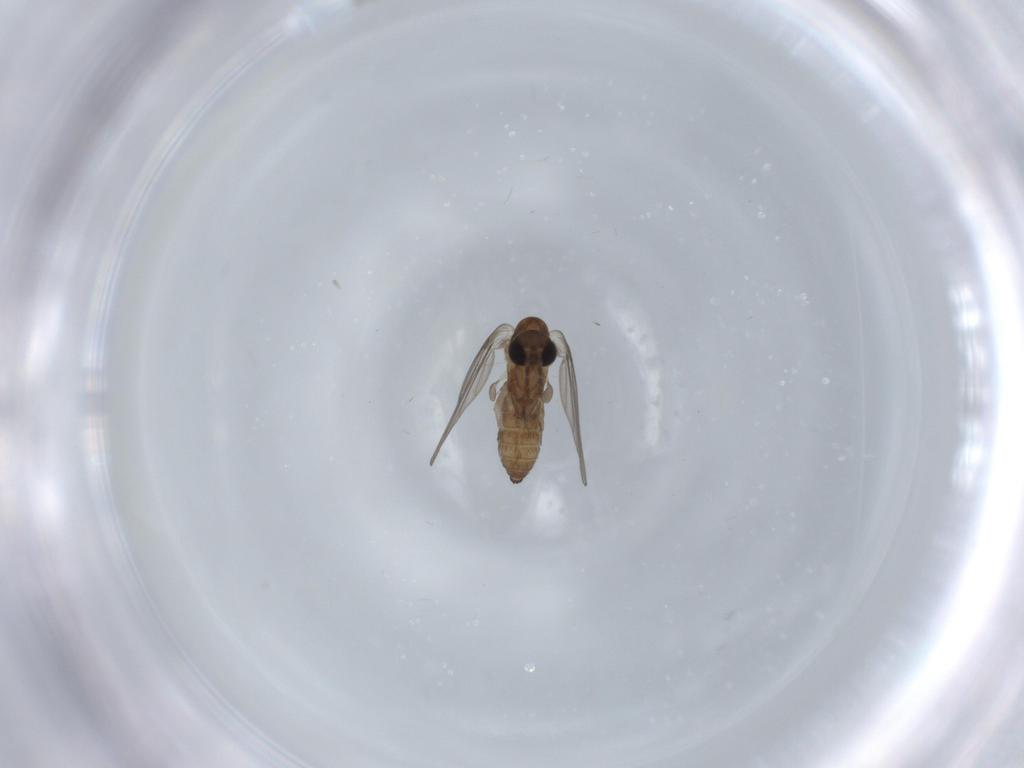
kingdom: Animalia
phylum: Arthropoda
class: Insecta
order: Diptera
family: Psychodidae
